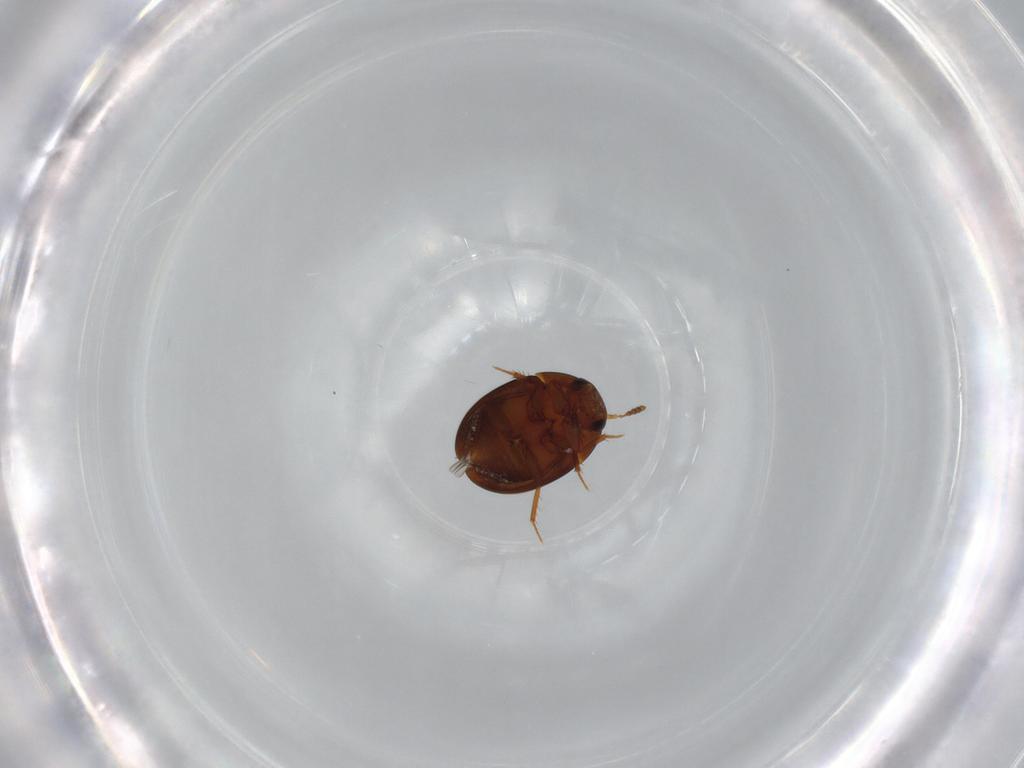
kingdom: Animalia
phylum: Arthropoda
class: Insecta
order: Coleoptera
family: Leiodidae
